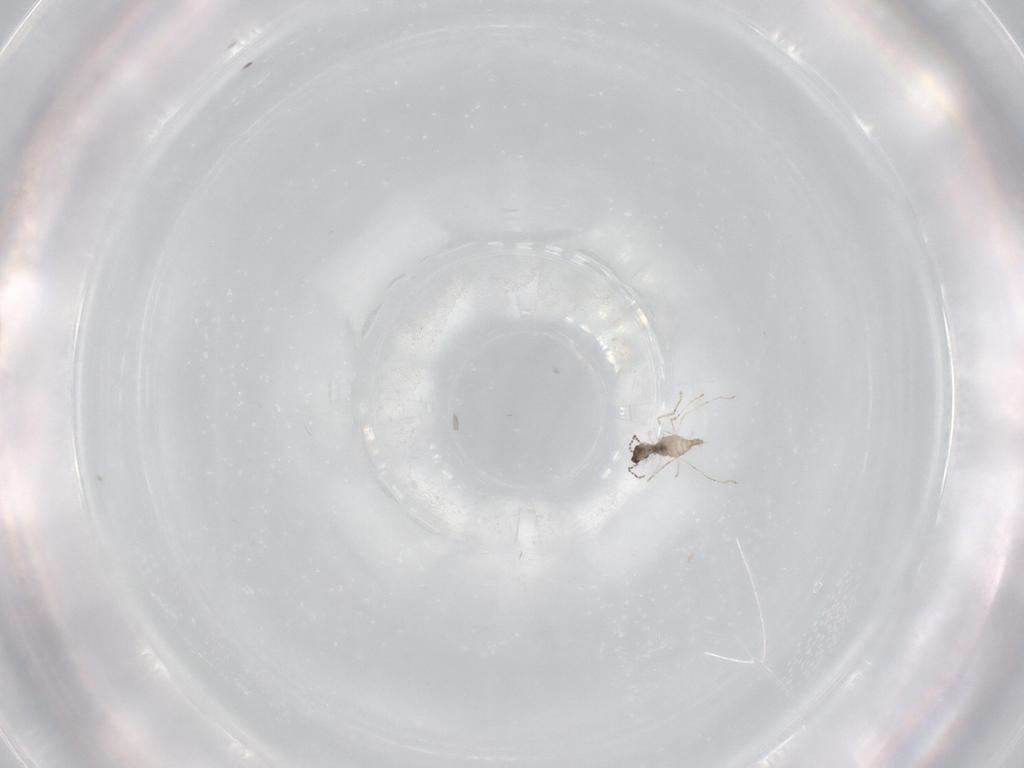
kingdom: Animalia
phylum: Arthropoda
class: Insecta
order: Diptera
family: Cecidomyiidae
